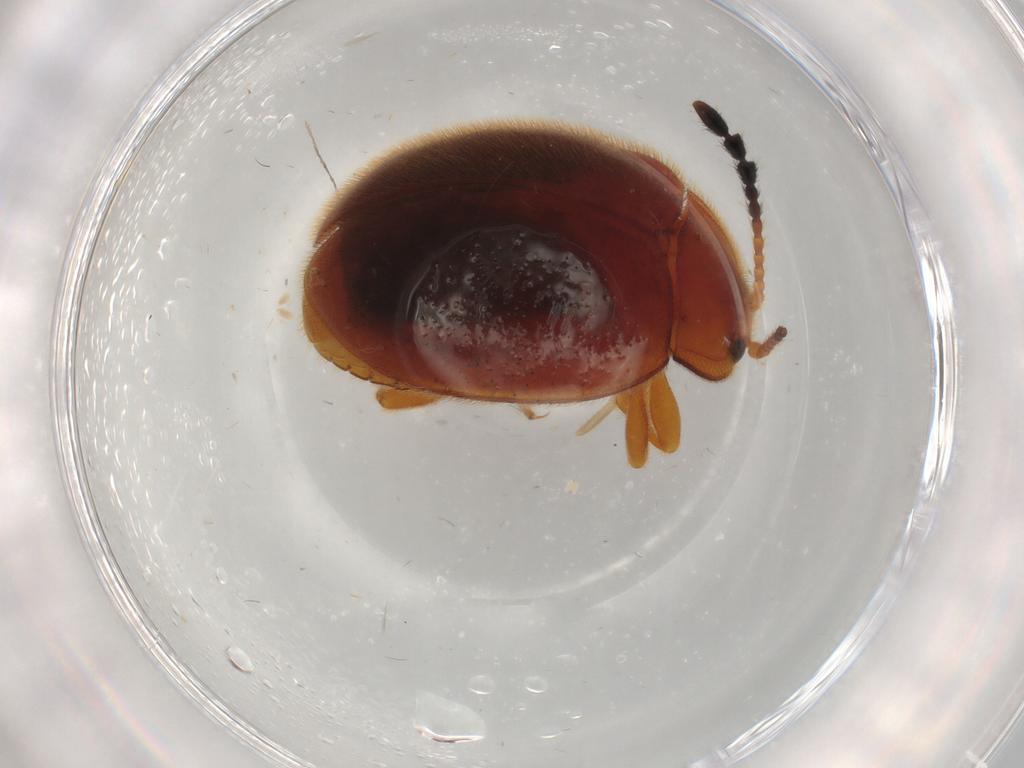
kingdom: Animalia
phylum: Arthropoda
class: Insecta
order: Coleoptera
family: Endomychidae
